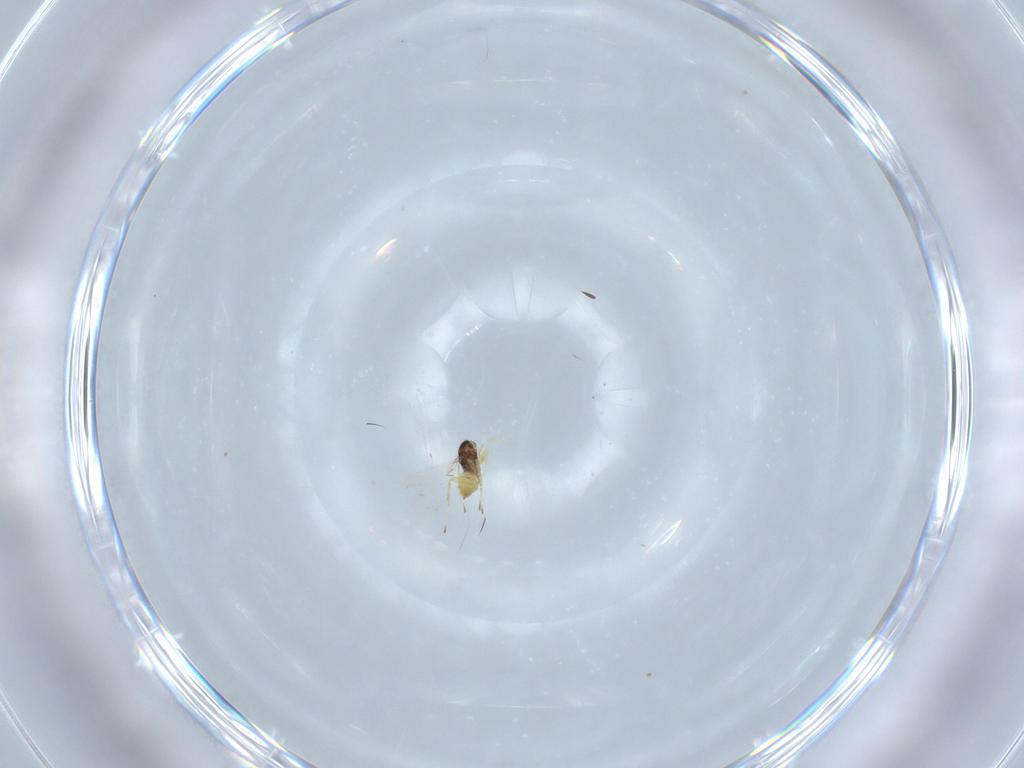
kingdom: Animalia
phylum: Arthropoda
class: Insecta
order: Hymenoptera
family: Mymaridae
